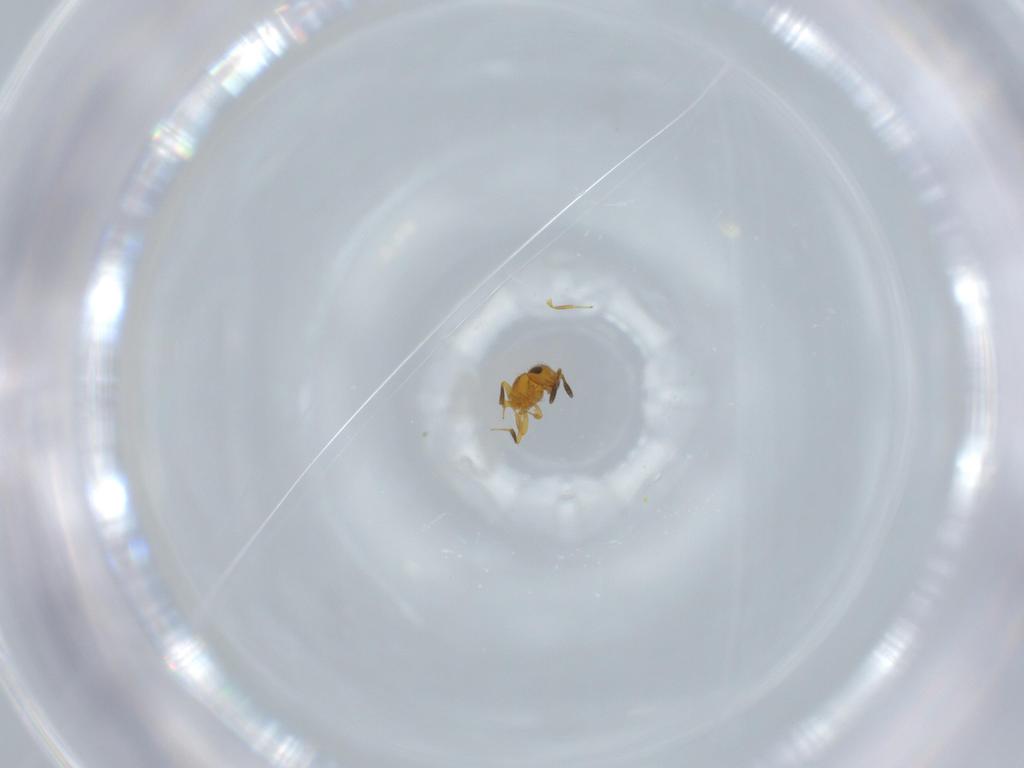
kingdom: Animalia
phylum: Arthropoda
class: Insecta
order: Hymenoptera
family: Scelionidae
